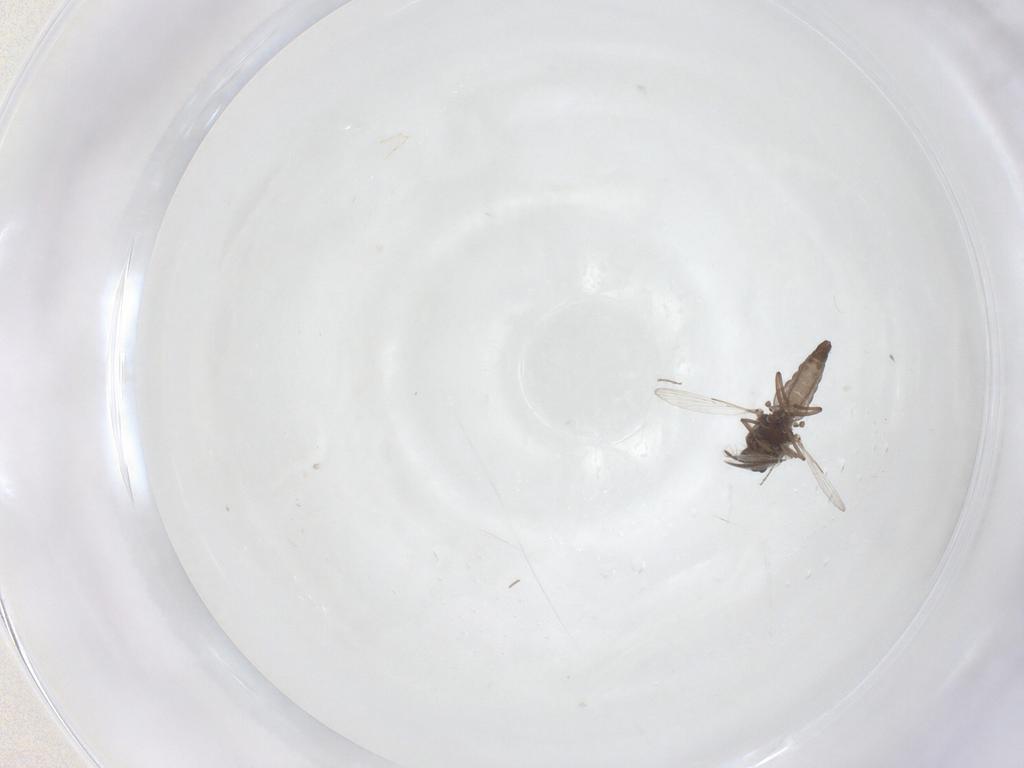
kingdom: Animalia
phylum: Arthropoda
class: Insecta
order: Diptera
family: Ceratopogonidae
